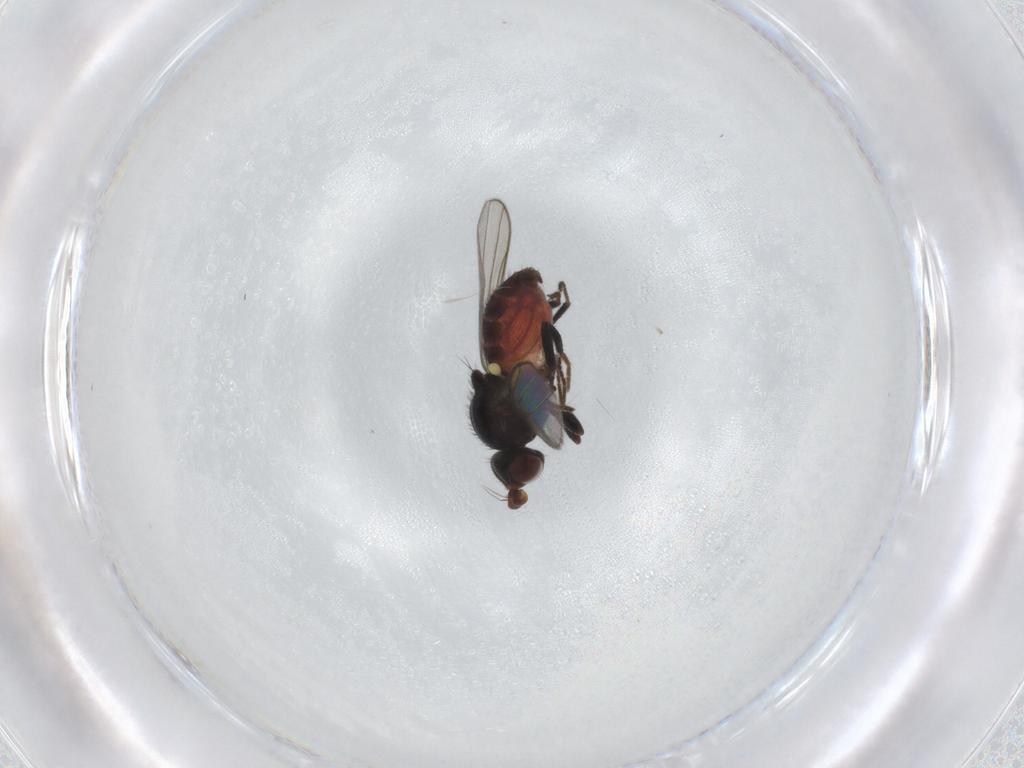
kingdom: Animalia
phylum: Arthropoda
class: Insecta
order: Diptera
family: Chloropidae
